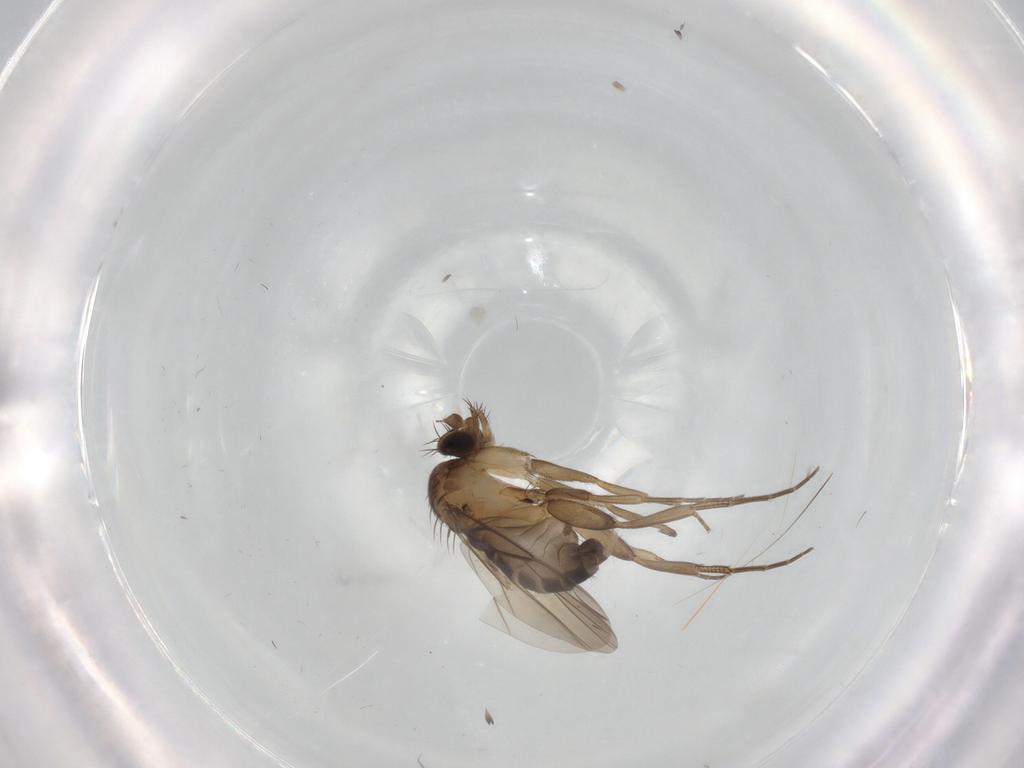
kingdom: Animalia
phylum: Arthropoda
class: Insecta
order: Diptera
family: Phoridae
